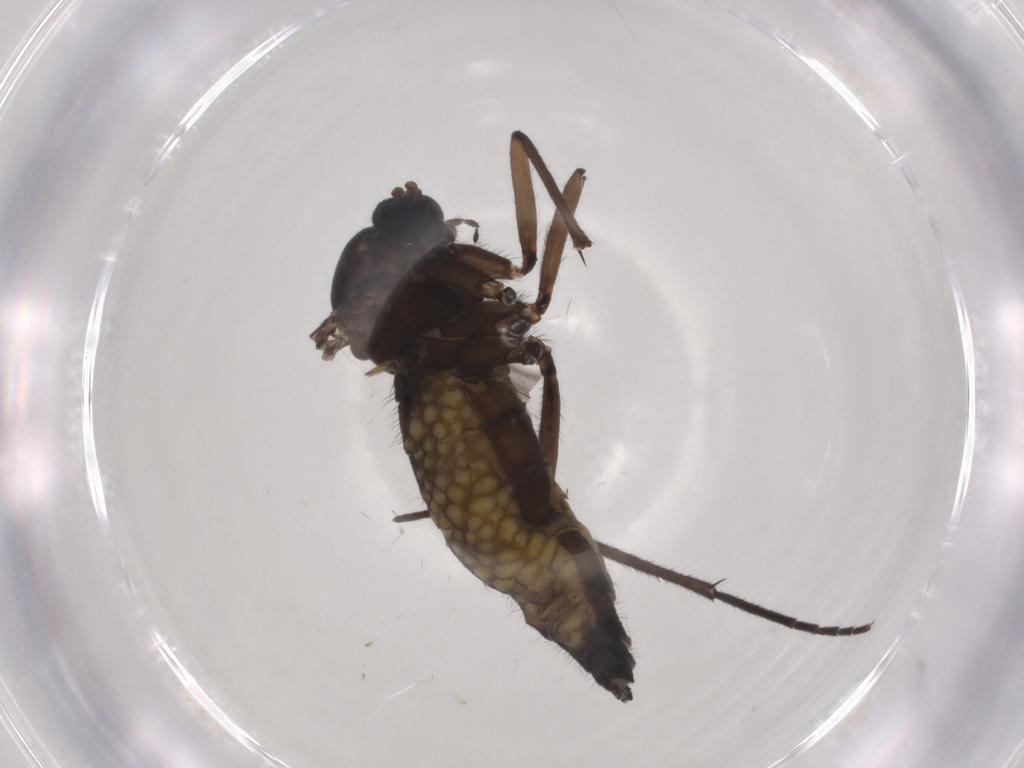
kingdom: Animalia
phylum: Arthropoda
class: Insecta
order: Diptera
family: Sciaridae
